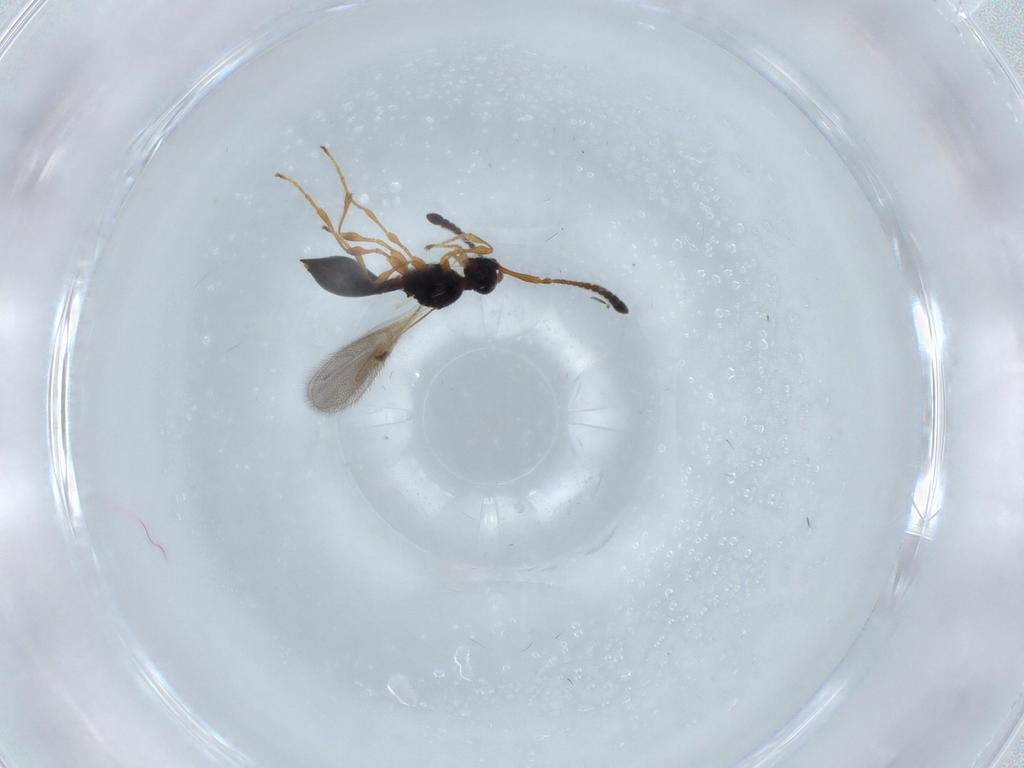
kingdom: Animalia
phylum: Arthropoda
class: Insecta
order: Hymenoptera
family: Diapriidae
